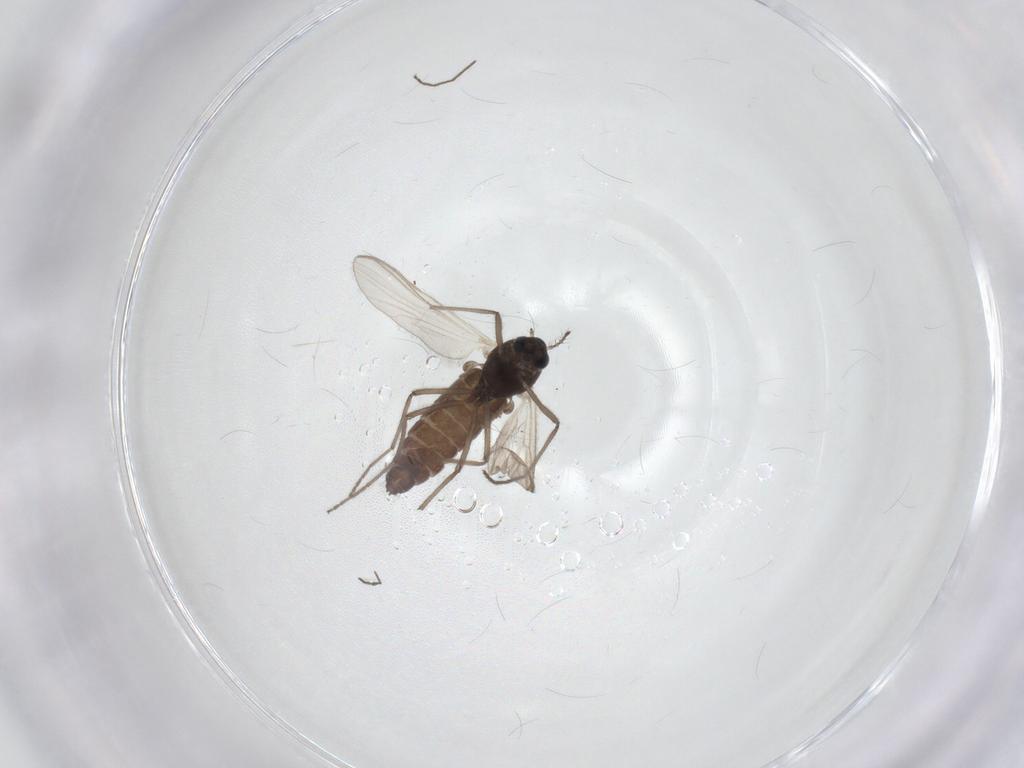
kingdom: Animalia
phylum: Arthropoda
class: Insecta
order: Diptera
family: Chironomidae
